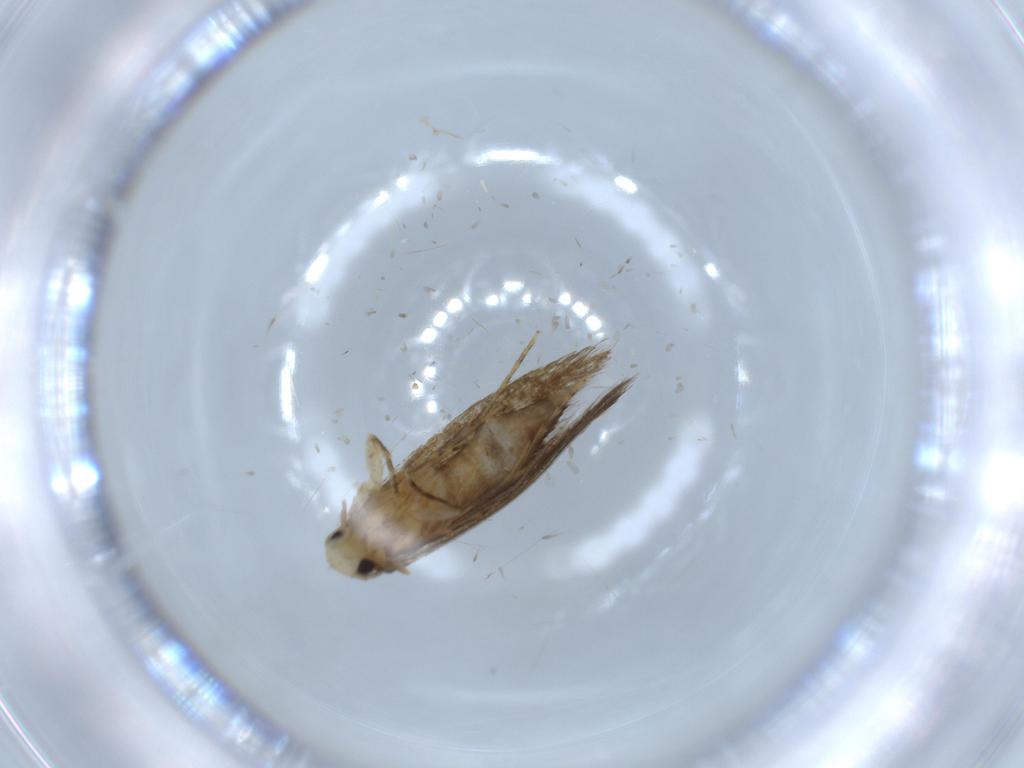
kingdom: Animalia
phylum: Arthropoda
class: Insecta
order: Lepidoptera
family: Tineidae
